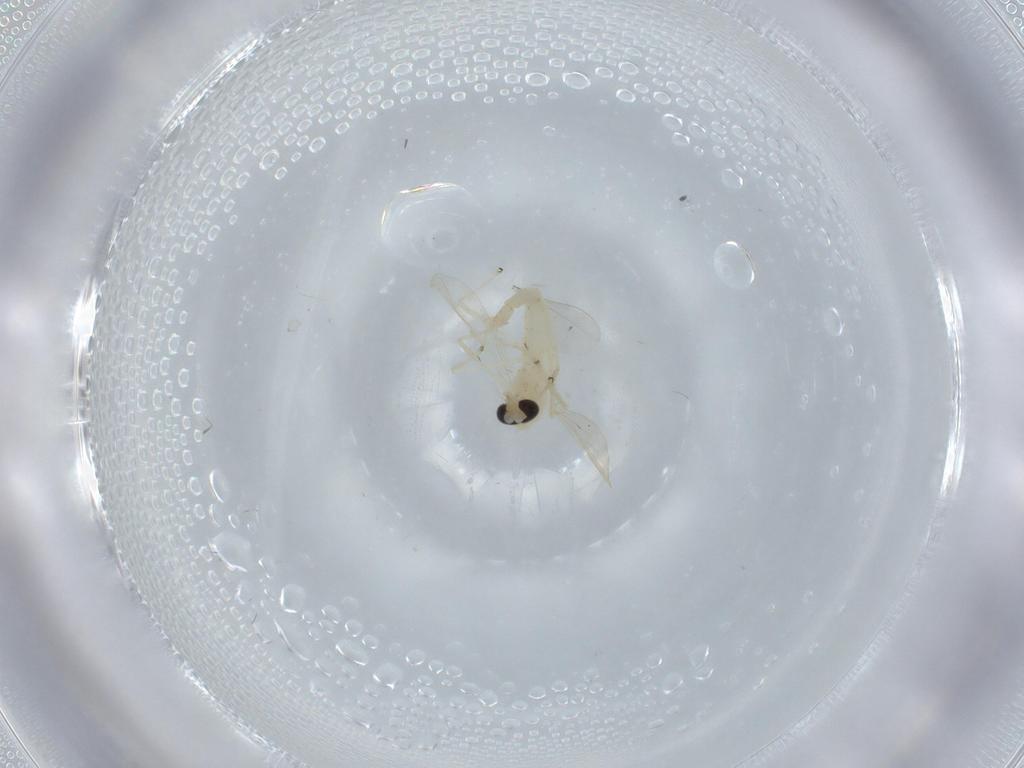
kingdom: Animalia
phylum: Arthropoda
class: Insecta
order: Diptera
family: Chironomidae
